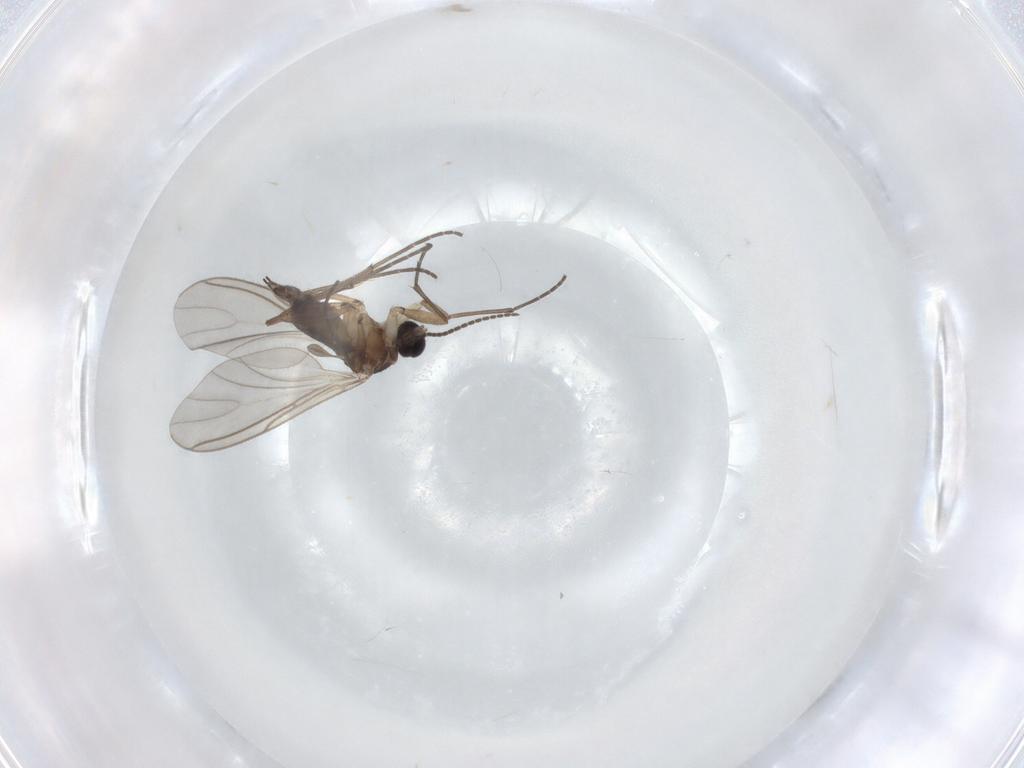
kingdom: Animalia
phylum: Arthropoda
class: Insecta
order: Diptera
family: Sciaridae
